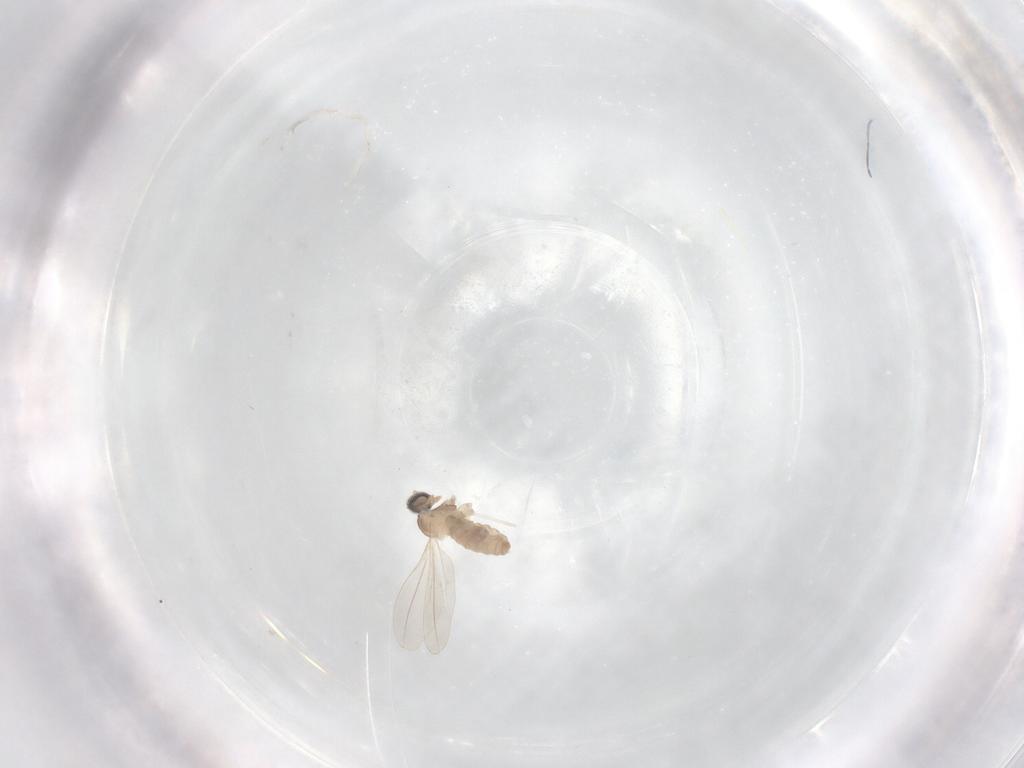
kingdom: Animalia
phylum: Arthropoda
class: Insecta
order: Diptera
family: Cecidomyiidae
